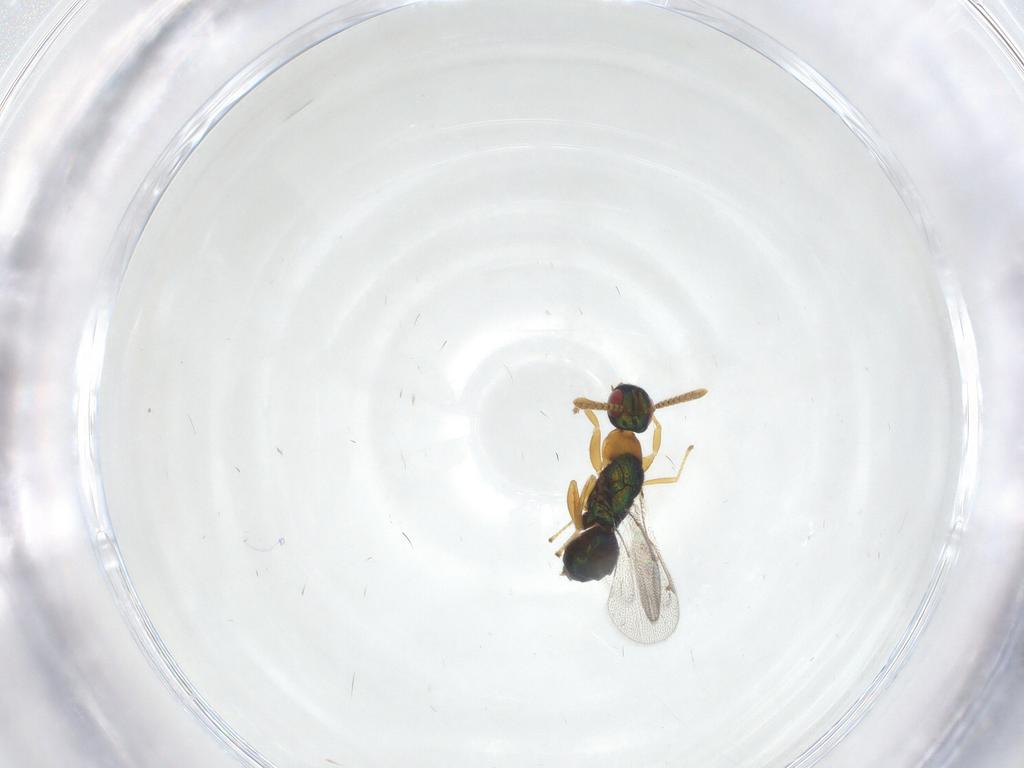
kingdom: Animalia
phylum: Arthropoda
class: Insecta
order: Hymenoptera
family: Torymidae
